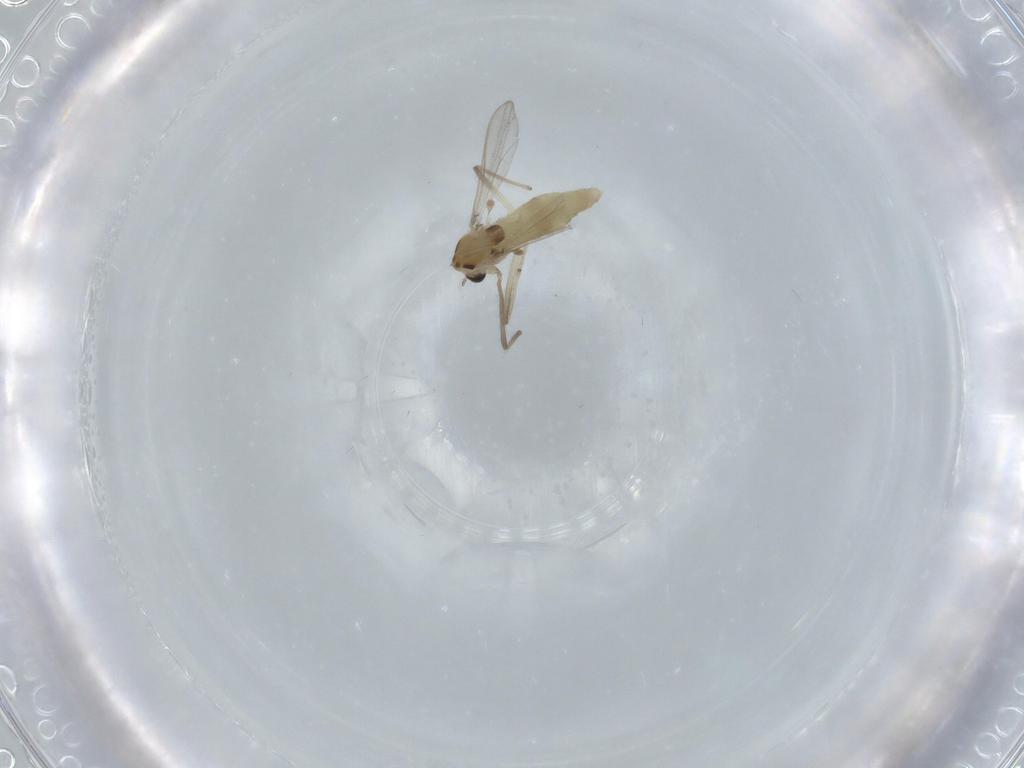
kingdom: Animalia
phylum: Arthropoda
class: Insecta
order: Diptera
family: Chironomidae
